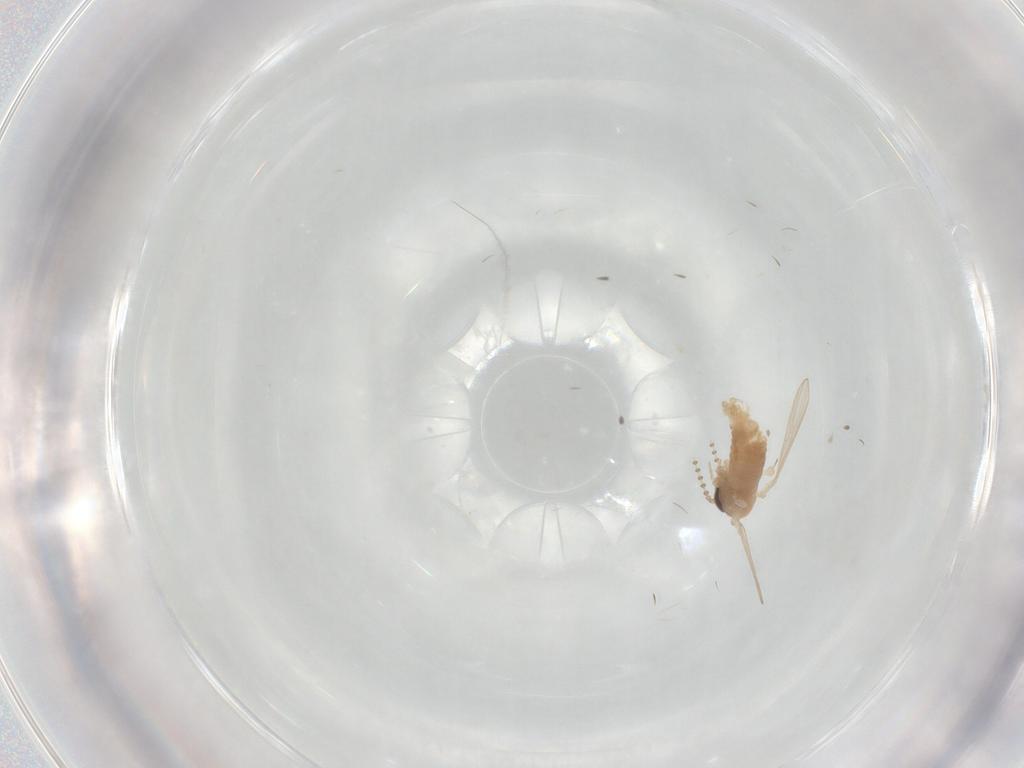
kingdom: Animalia
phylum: Arthropoda
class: Insecta
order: Diptera
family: Psychodidae
